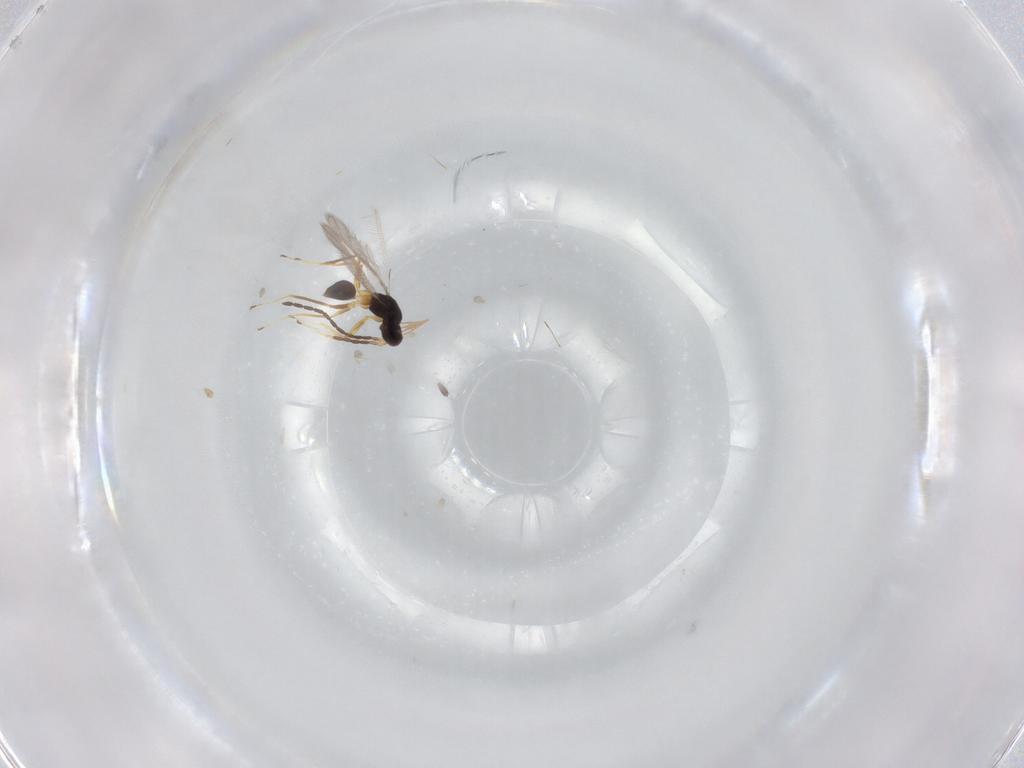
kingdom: Animalia
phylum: Arthropoda
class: Insecta
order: Hymenoptera
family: Mymaridae
